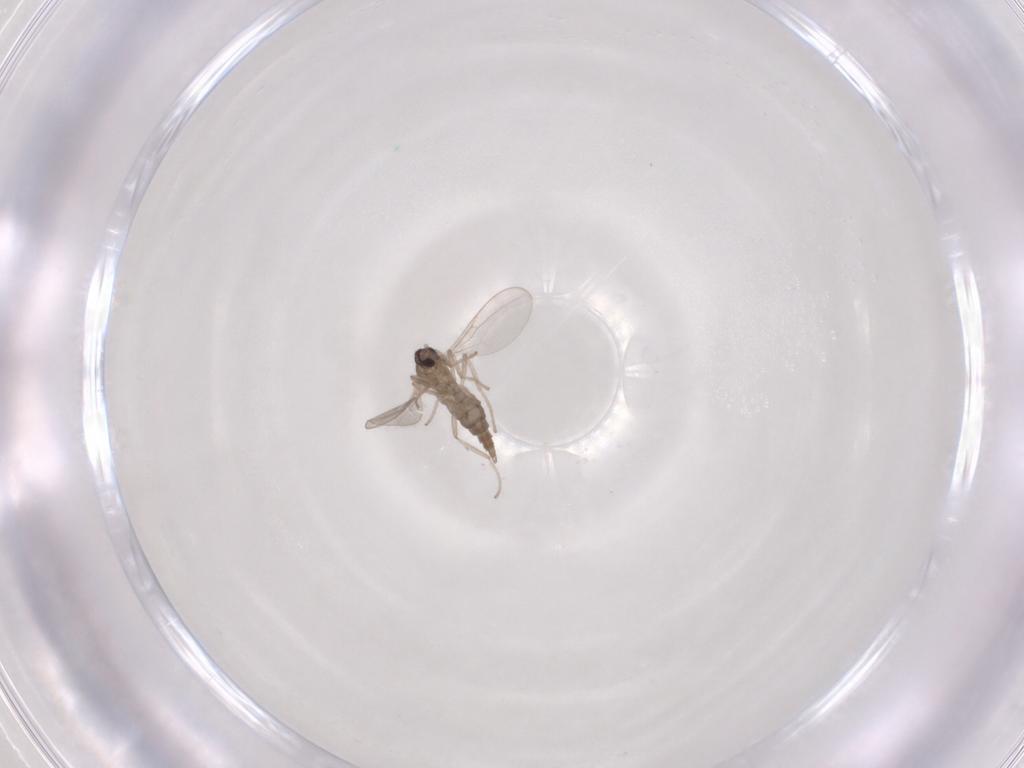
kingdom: Animalia
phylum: Arthropoda
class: Insecta
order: Diptera
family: Cecidomyiidae
